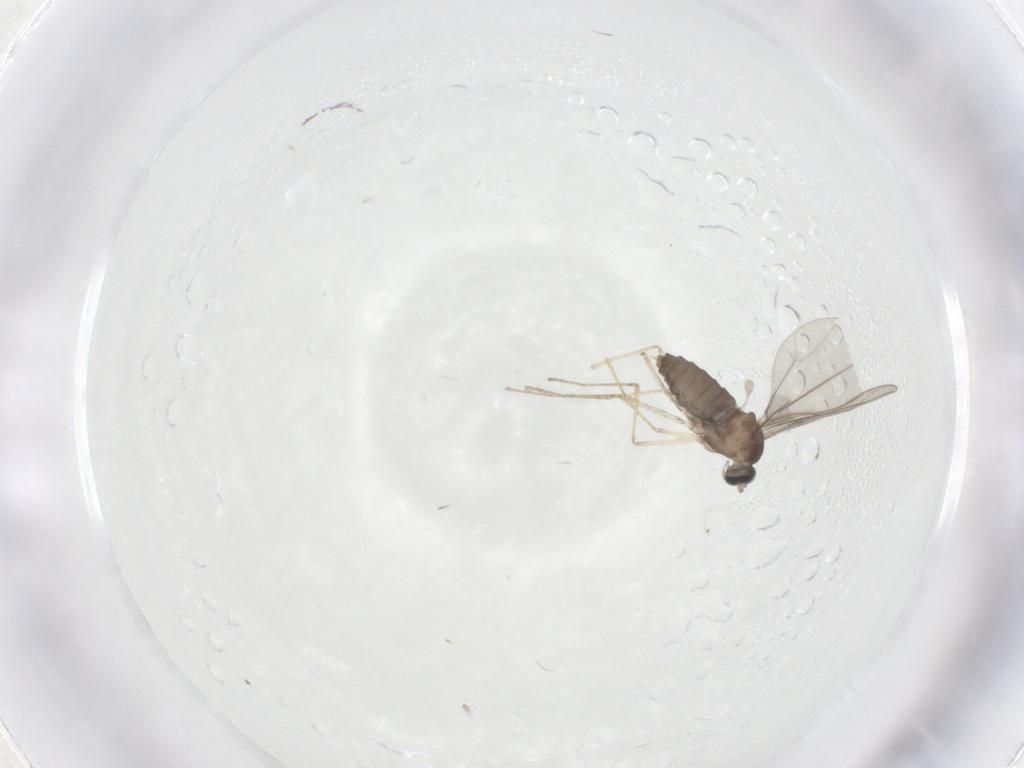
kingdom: Animalia
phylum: Arthropoda
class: Insecta
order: Diptera
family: Cecidomyiidae
